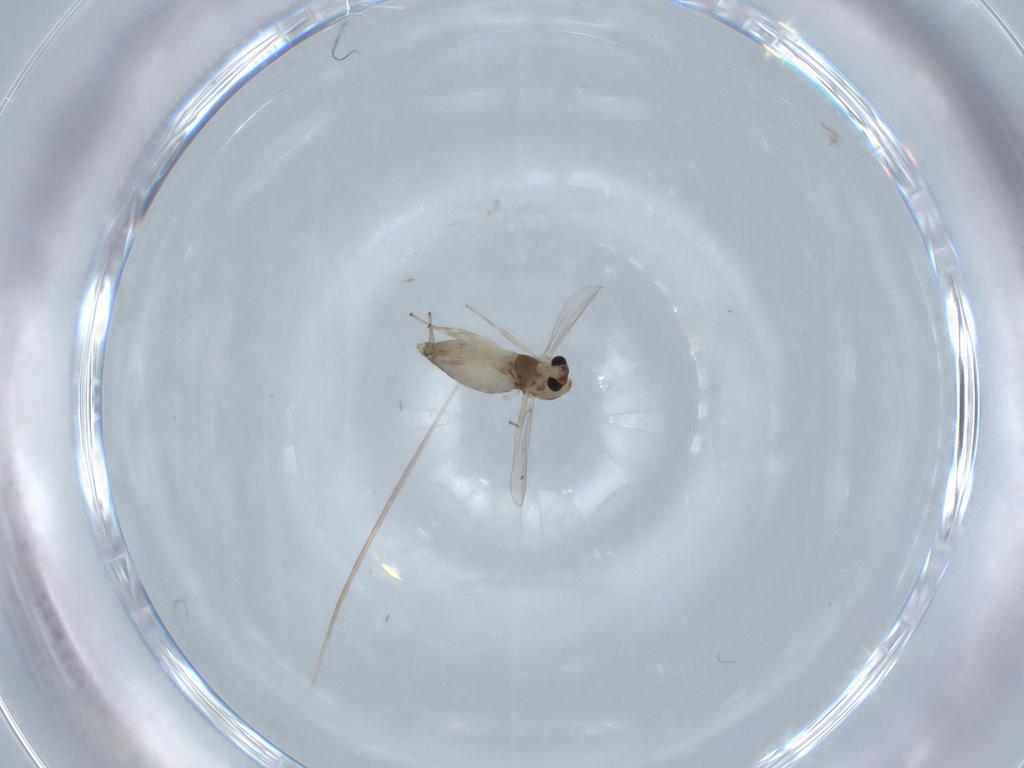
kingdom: Animalia
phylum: Arthropoda
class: Insecta
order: Diptera
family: Chironomidae
